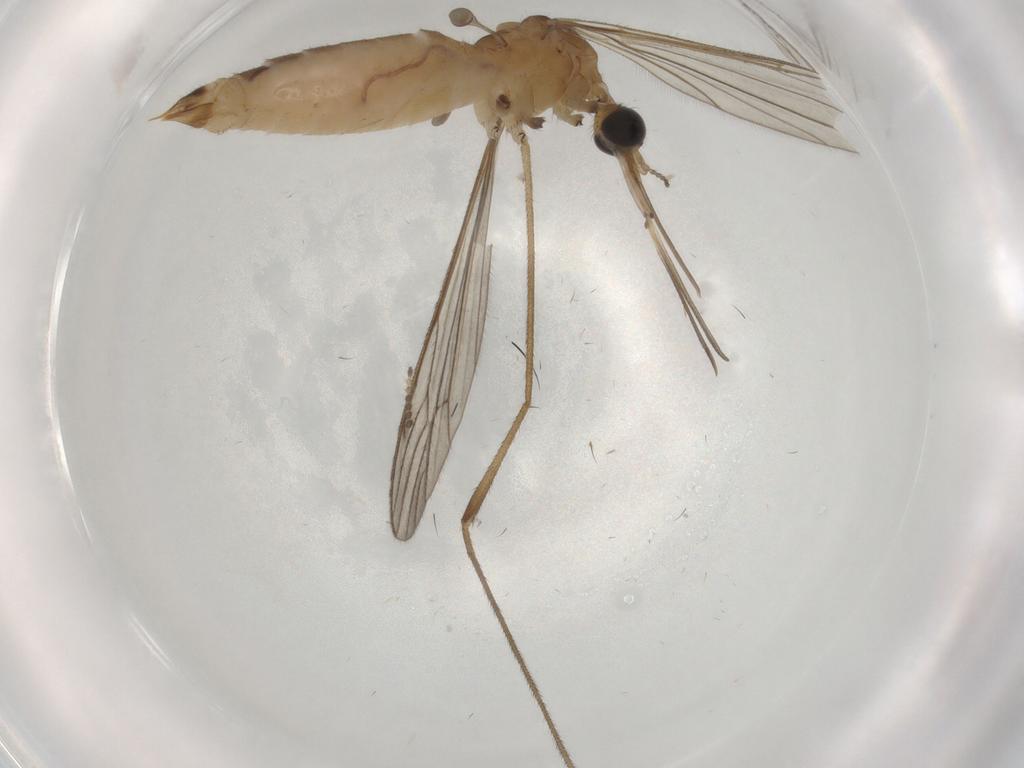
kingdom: Animalia
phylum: Arthropoda
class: Insecta
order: Diptera
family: Limoniidae
